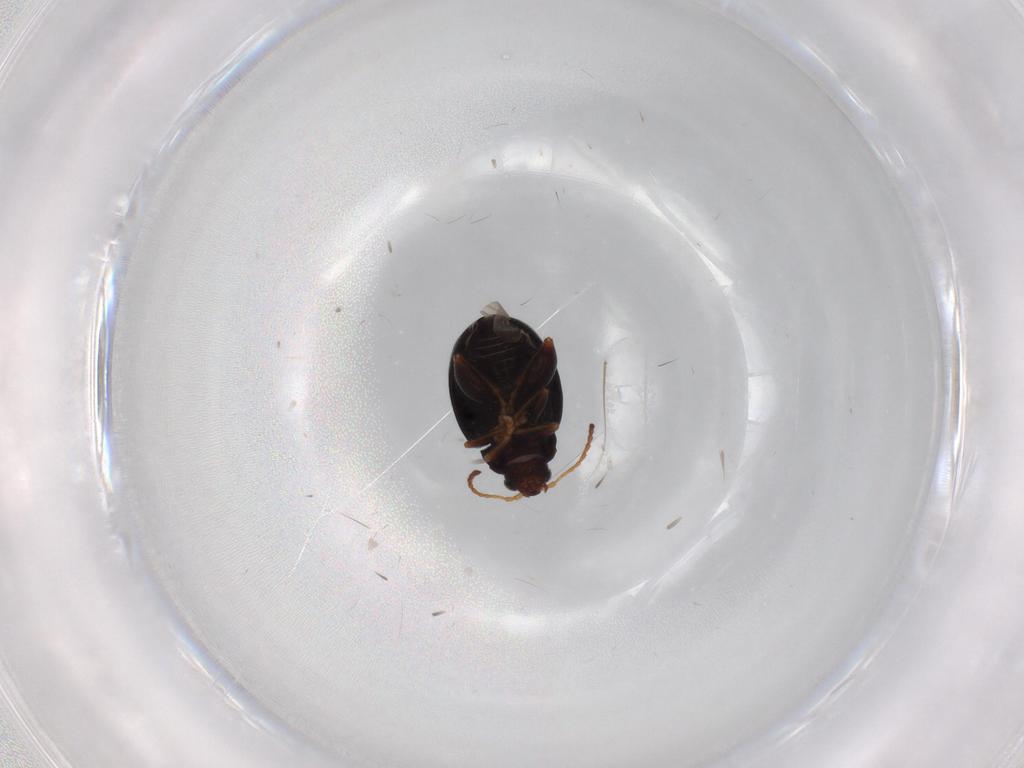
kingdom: Animalia
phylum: Arthropoda
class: Insecta
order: Coleoptera
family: Chrysomelidae
